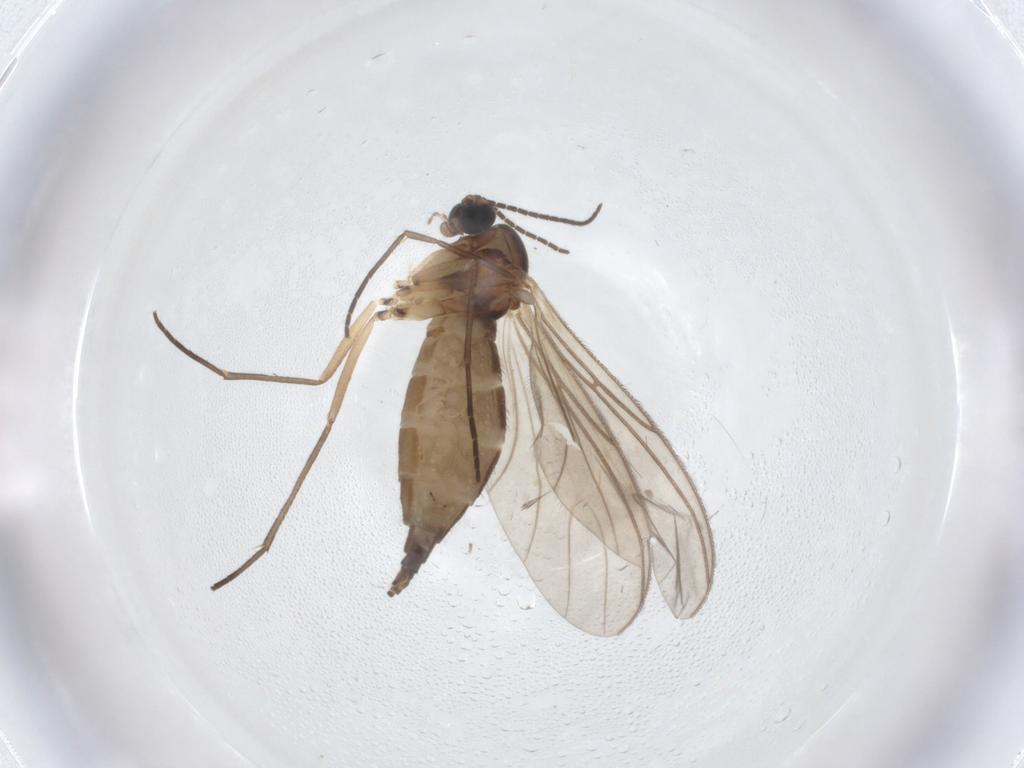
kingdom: Animalia
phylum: Arthropoda
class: Insecta
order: Diptera
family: Sciaridae
